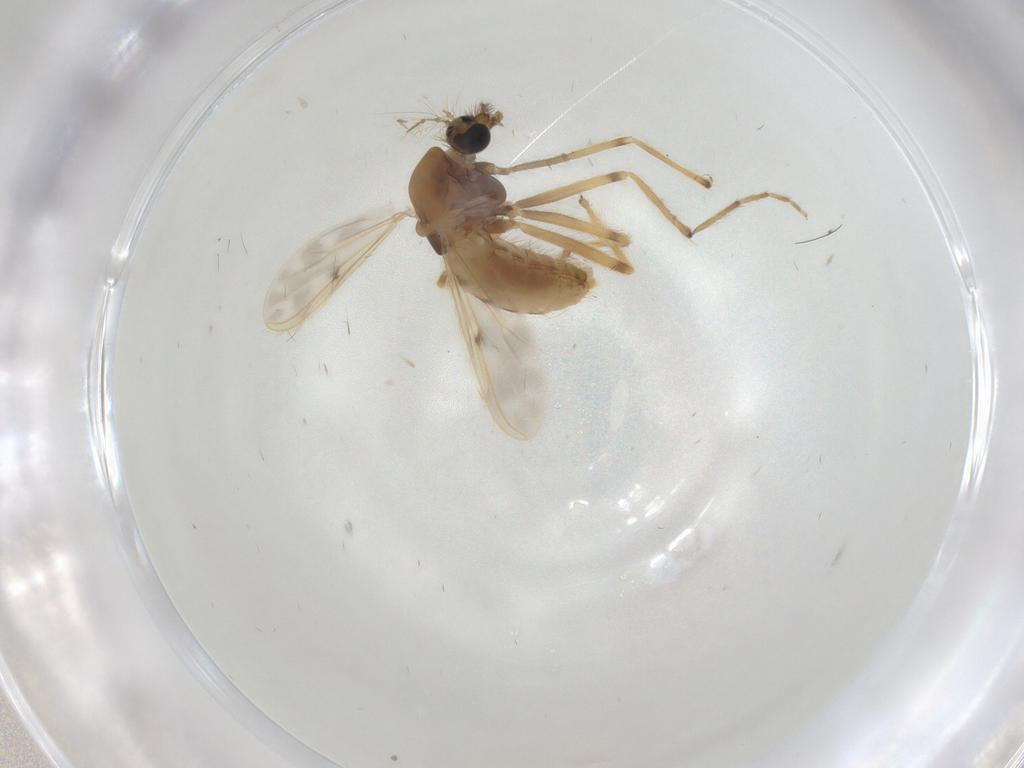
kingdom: Animalia
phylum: Arthropoda
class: Insecta
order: Diptera
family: Chironomidae
